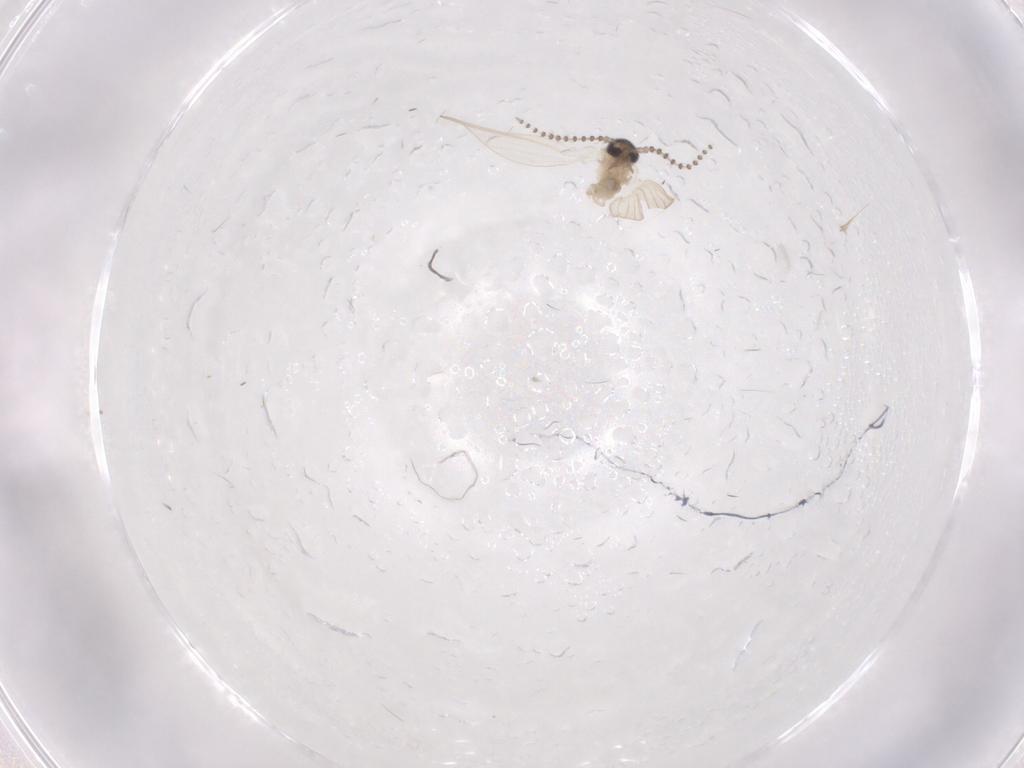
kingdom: Animalia
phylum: Arthropoda
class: Insecta
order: Diptera
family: Psychodidae
